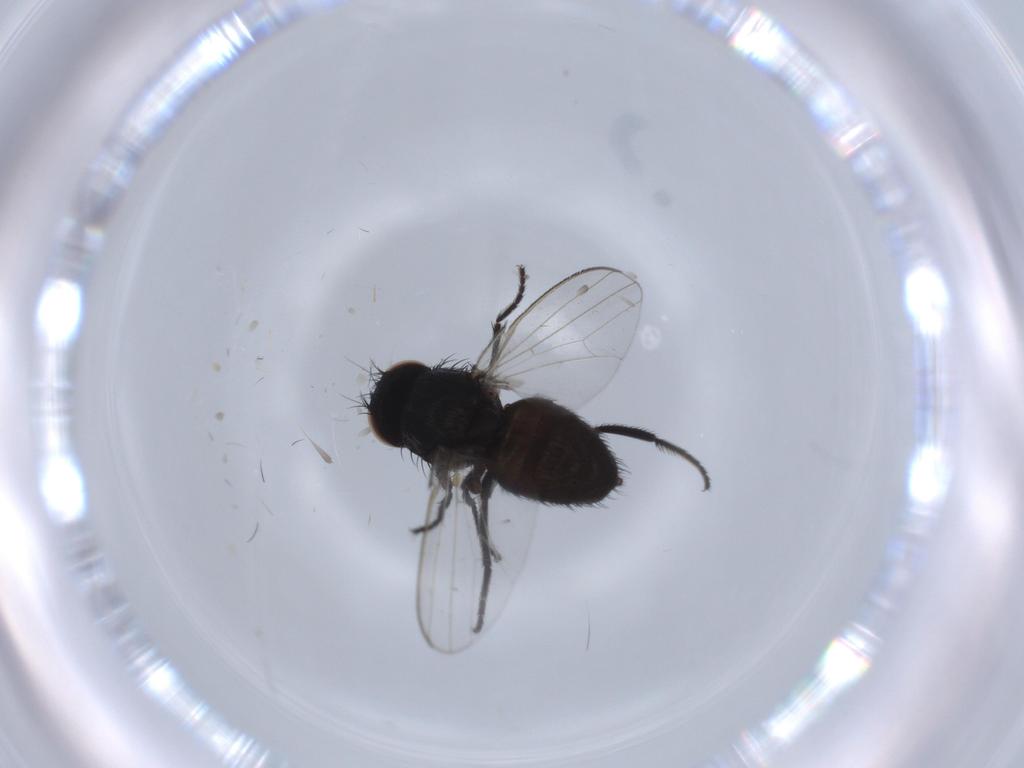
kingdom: Animalia
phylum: Arthropoda
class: Insecta
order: Diptera
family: Milichiidae
